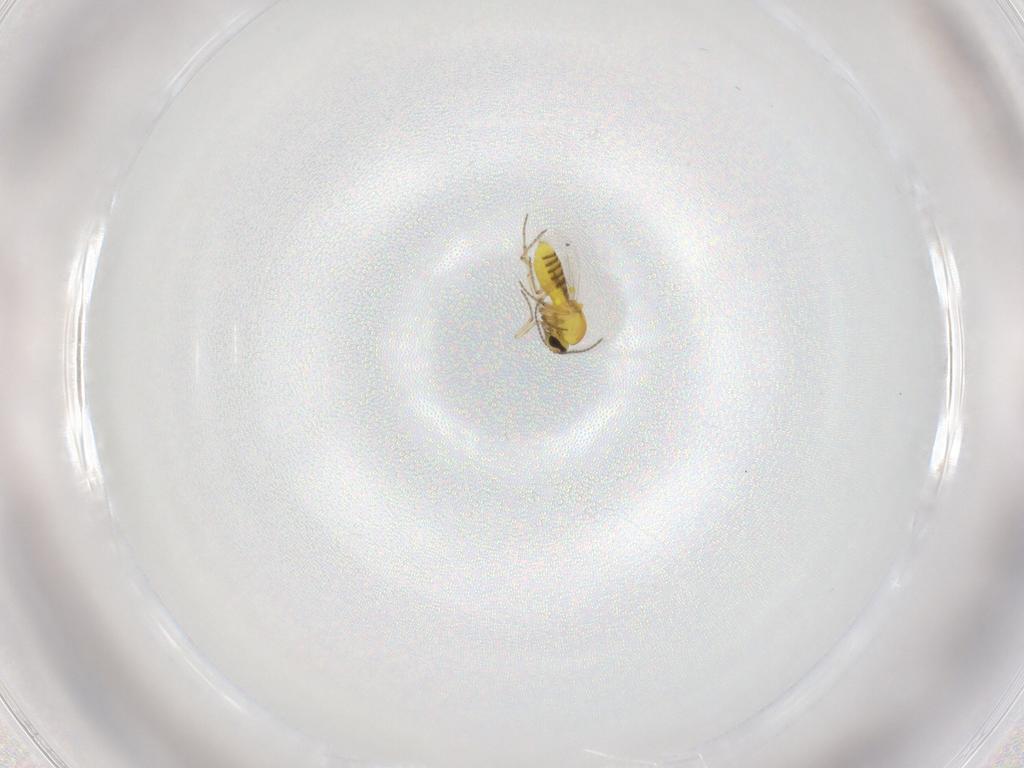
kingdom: Animalia
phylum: Arthropoda
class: Insecta
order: Diptera
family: Ceratopogonidae
